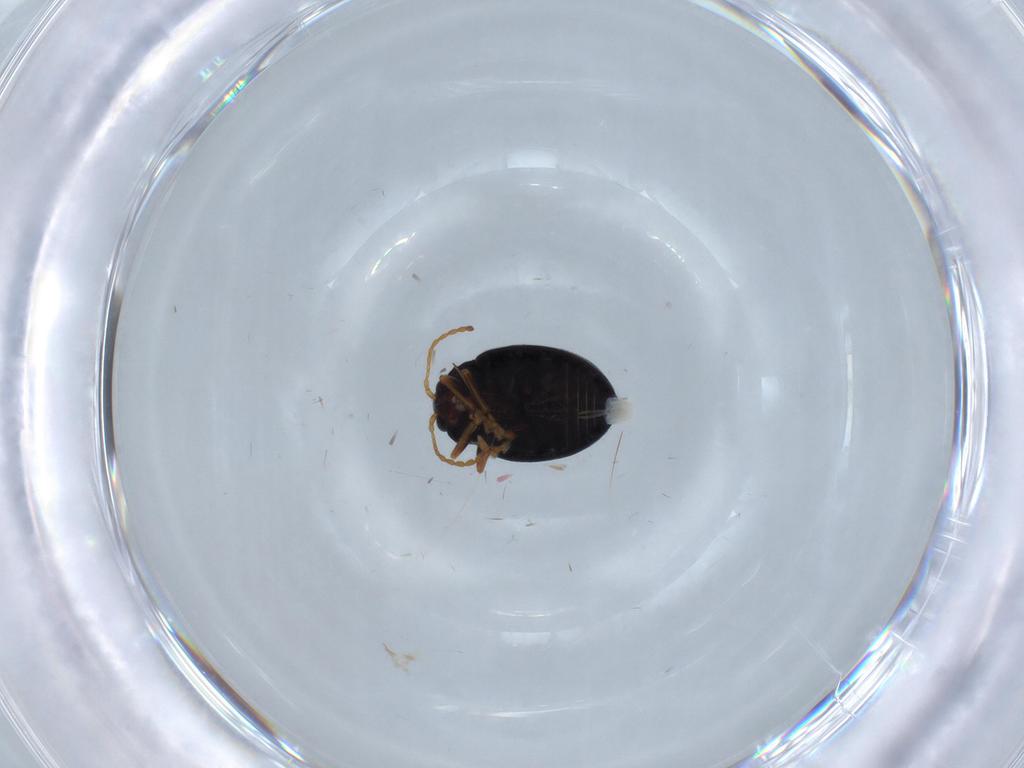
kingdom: Animalia
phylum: Arthropoda
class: Insecta
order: Coleoptera
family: Chrysomelidae
